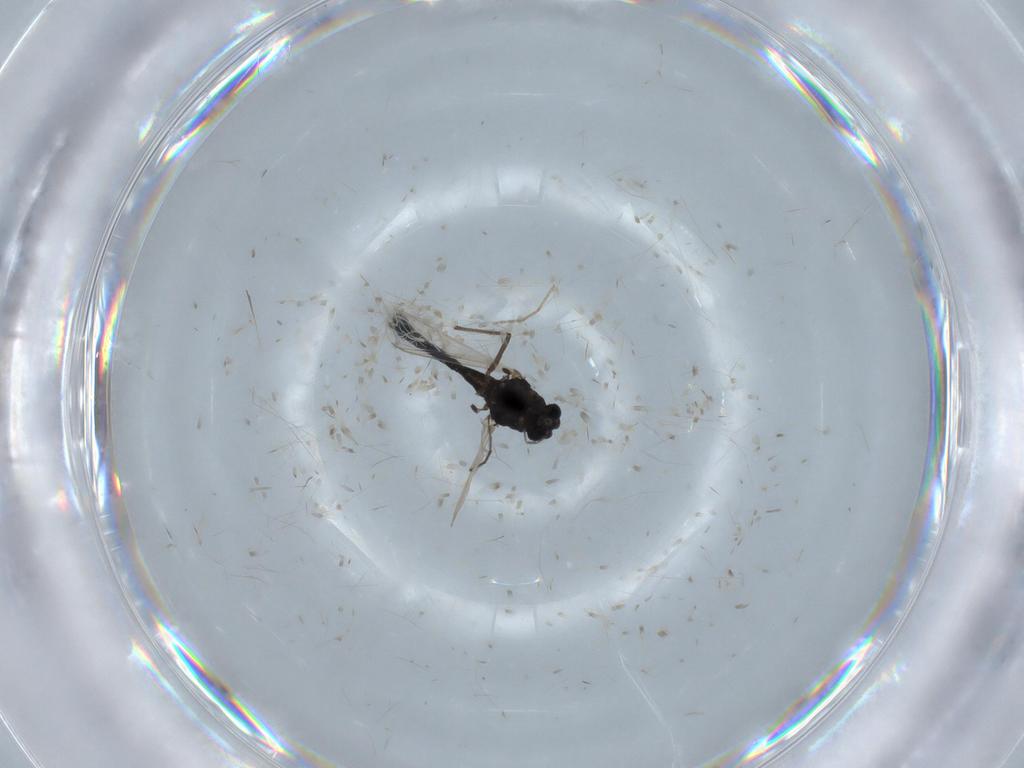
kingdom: Animalia
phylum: Arthropoda
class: Insecta
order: Diptera
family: Chironomidae
